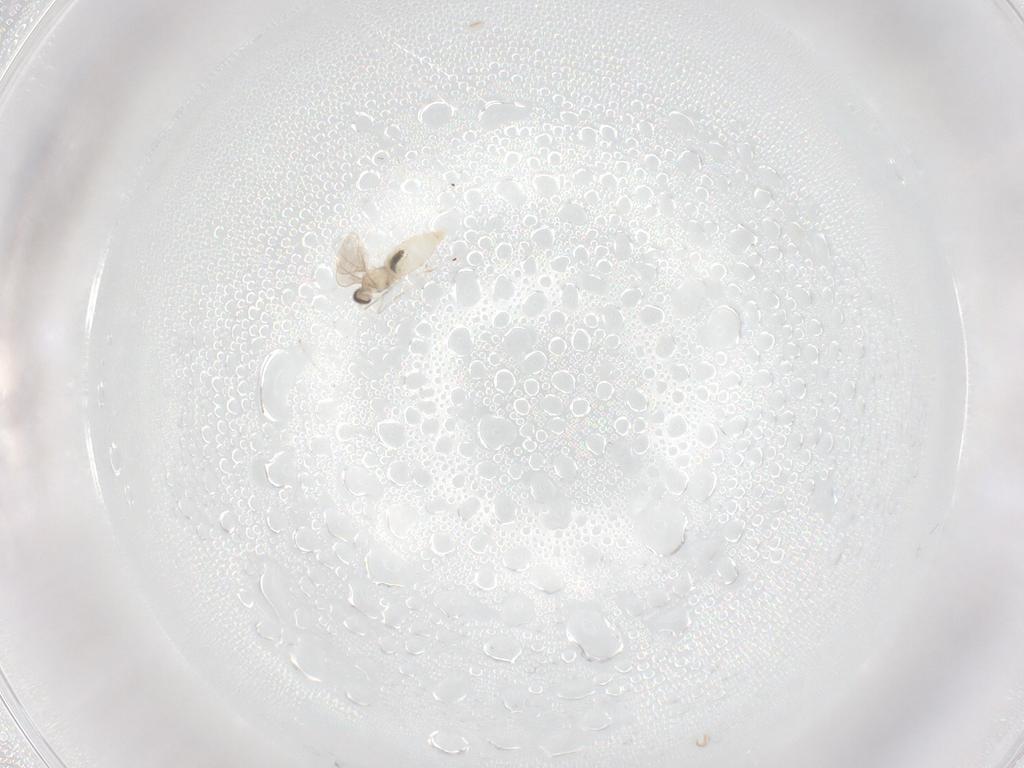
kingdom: Animalia
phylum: Arthropoda
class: Insecta
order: Diptera
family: Cecidomyiidae
